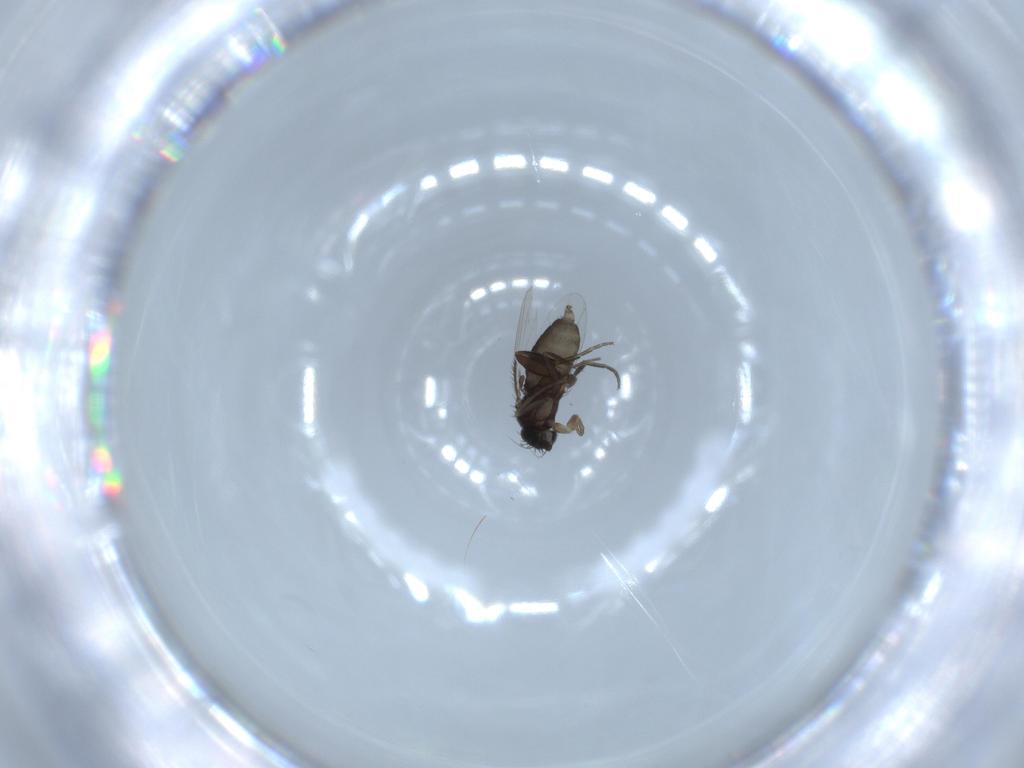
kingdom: Animalia
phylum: Arthropoda
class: Insecta
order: Diptera
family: Phoridae
